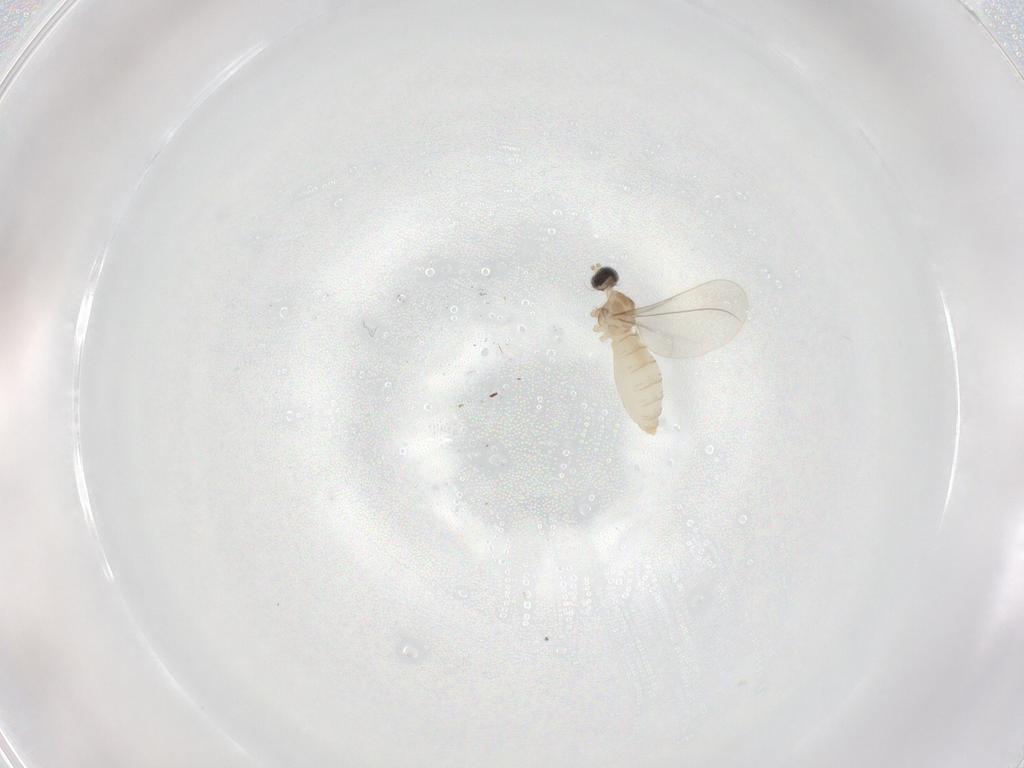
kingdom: Animalia
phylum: Arthropoda
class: Insecta
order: Diptera
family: Cecidomyiidae
